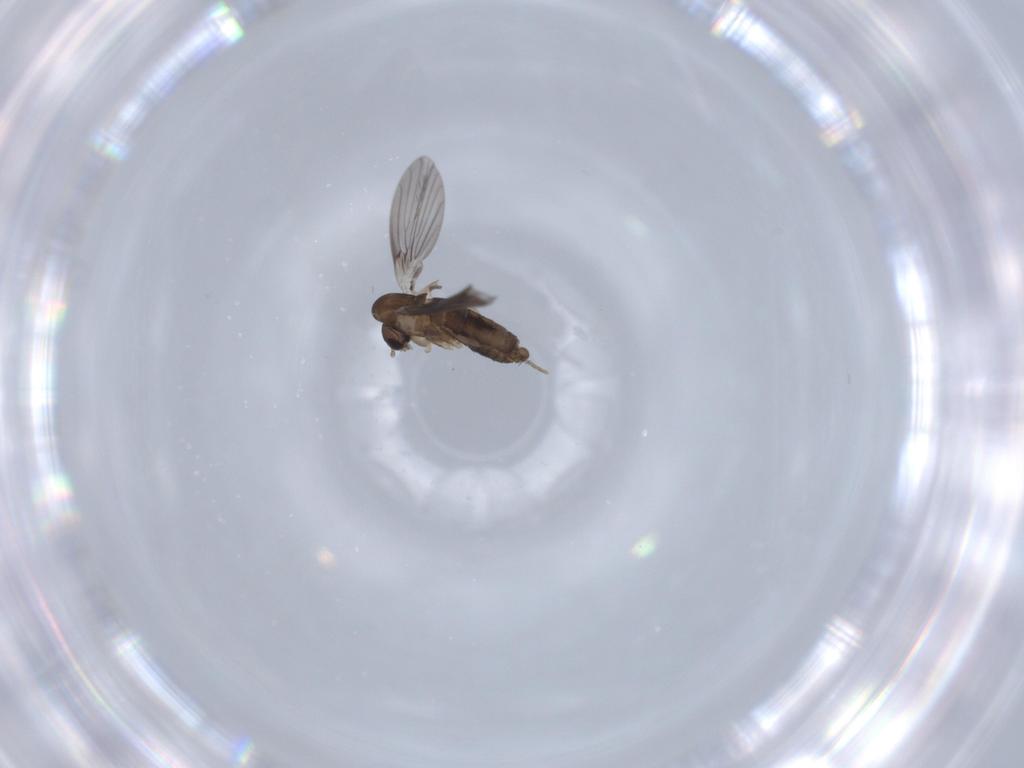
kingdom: Animalia
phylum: Arthropoda
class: Insecta
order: Diptera
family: Chironomidae
